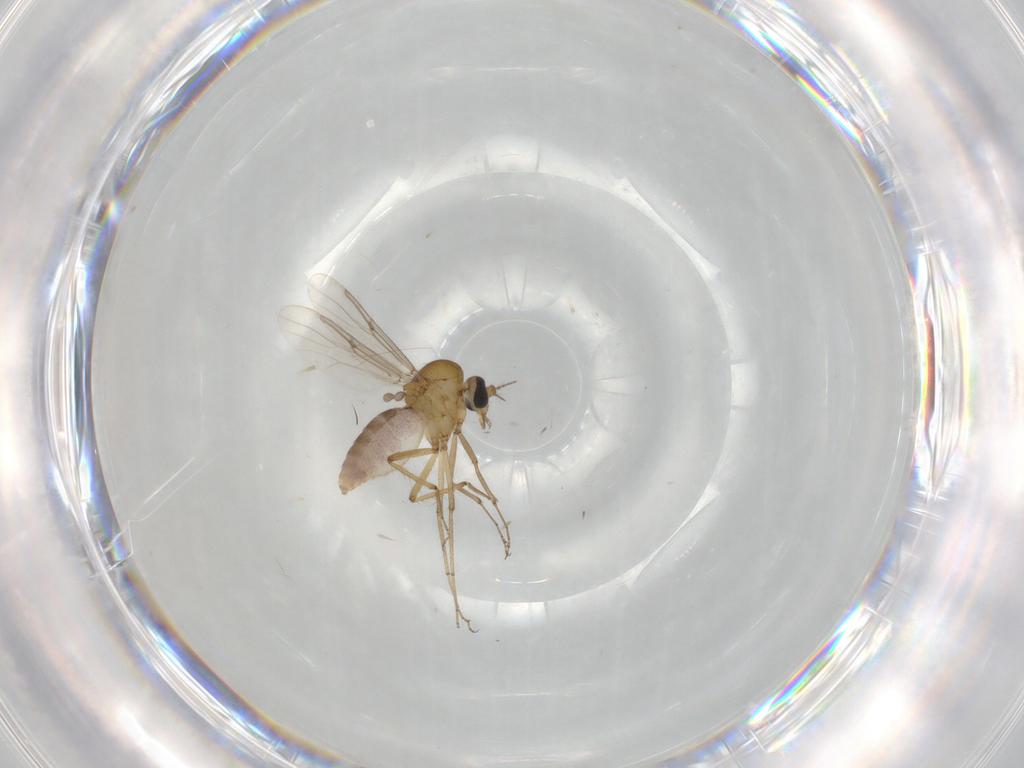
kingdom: Animalia
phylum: Arthropoda
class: Insecta
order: Diptera
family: Ceratopogonidae
